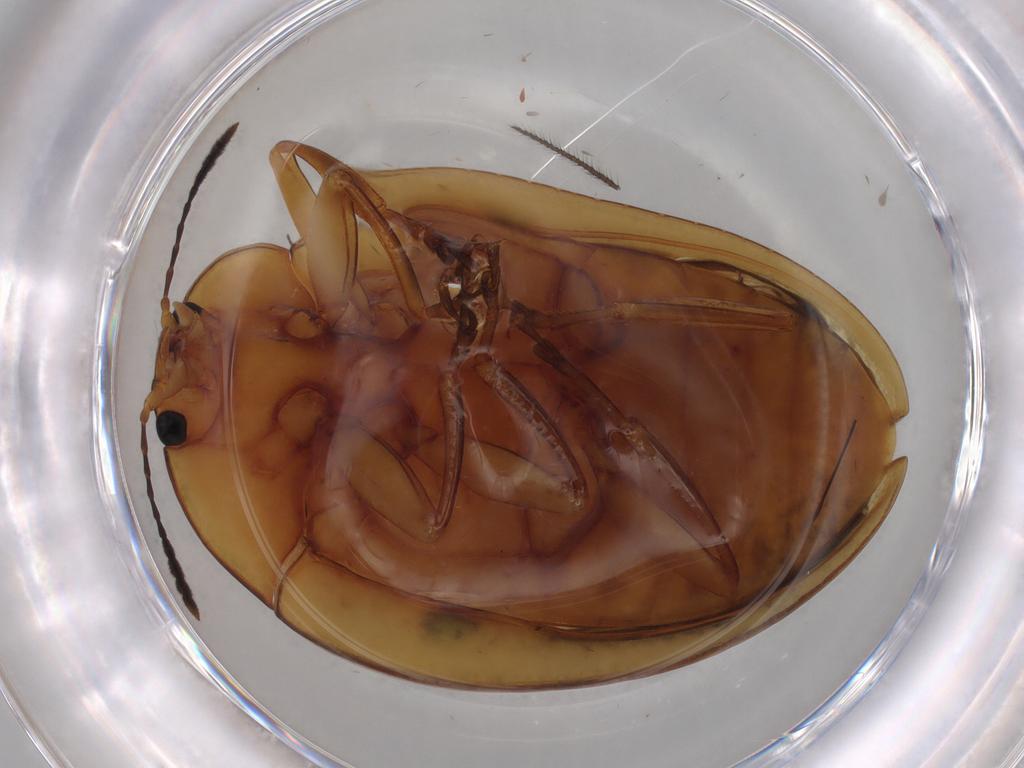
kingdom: Animalia
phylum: Arthropoda
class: Insecta
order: Coleoptera
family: Erotylidae
